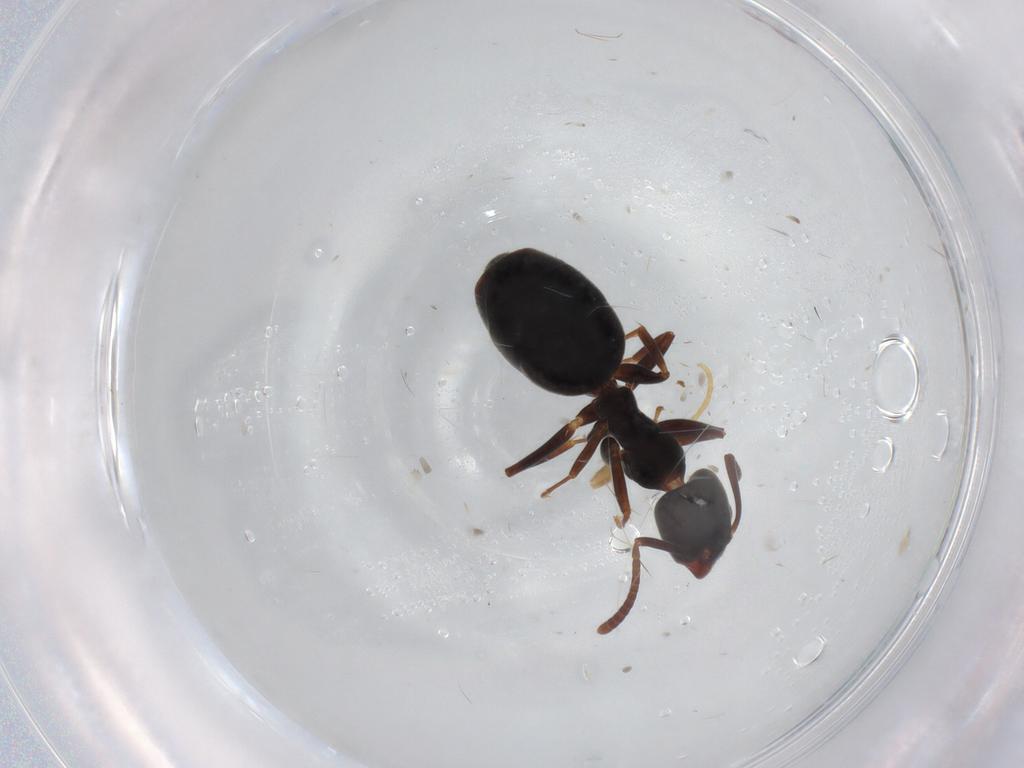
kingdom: Animalia
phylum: Arthropoda
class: Insecta
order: Hymenoptera
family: Formicidae
